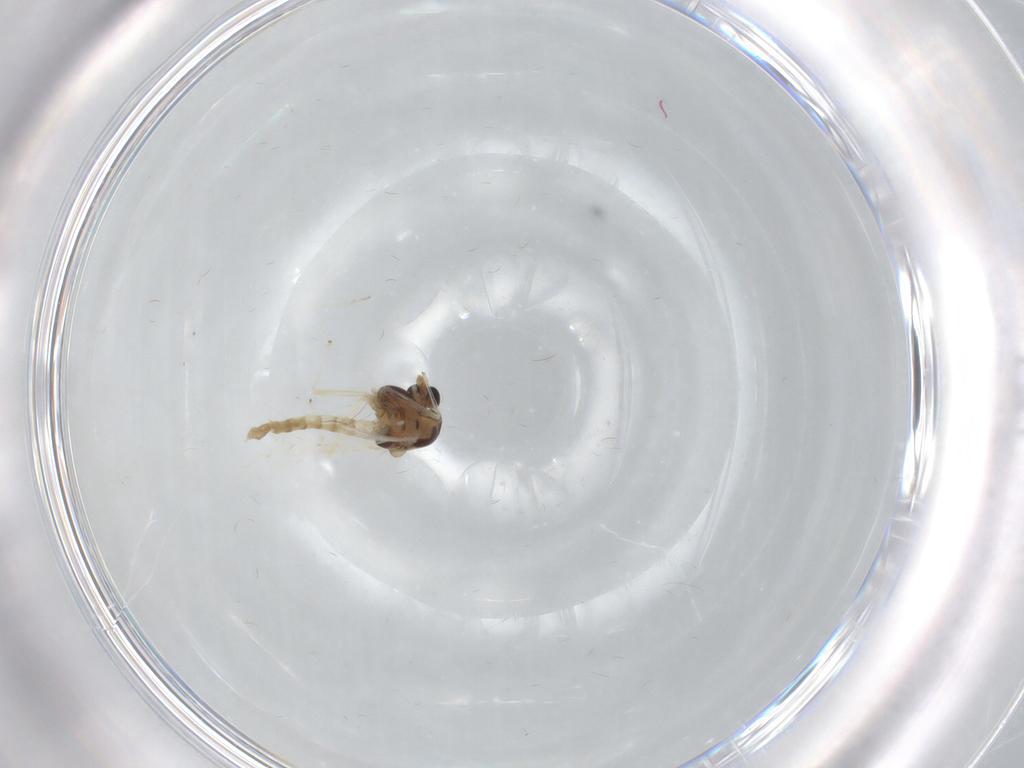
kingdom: Animalia
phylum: Arthropoda
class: Insecta
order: Diptera
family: Chironomidae
